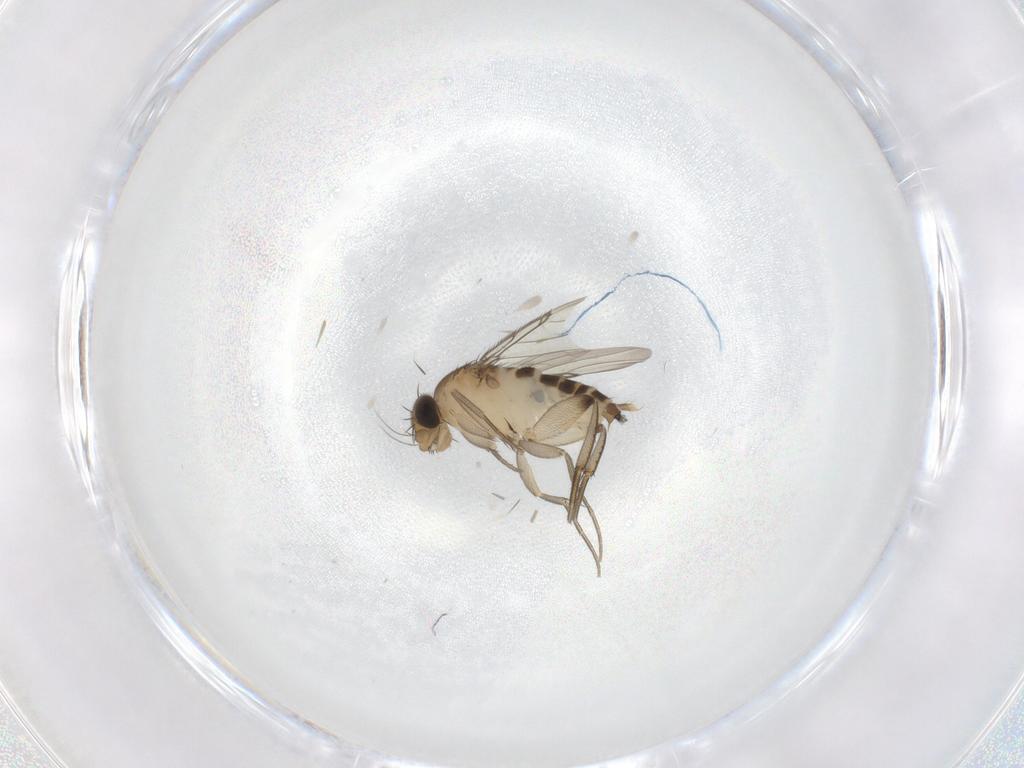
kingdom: Animalia
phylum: Arthropoda
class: Insecta
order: Diptera
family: Phoridae
